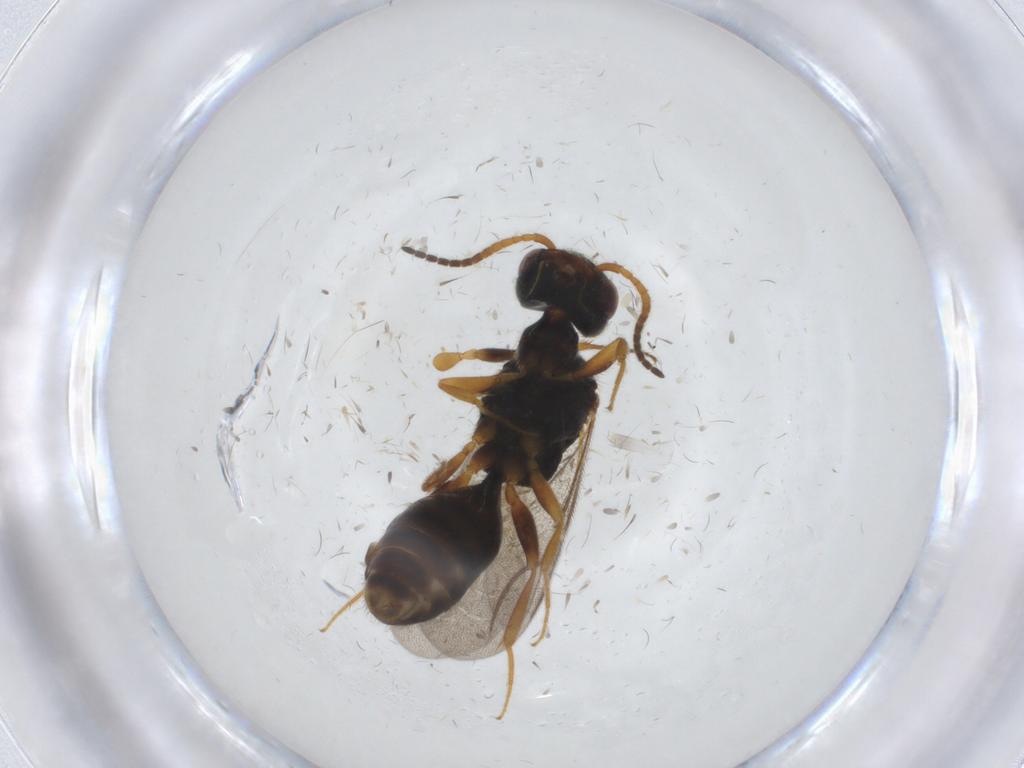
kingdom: Animalia
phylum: Arthropoda
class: Insecta
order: Hymenoptera
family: Bethylidae
